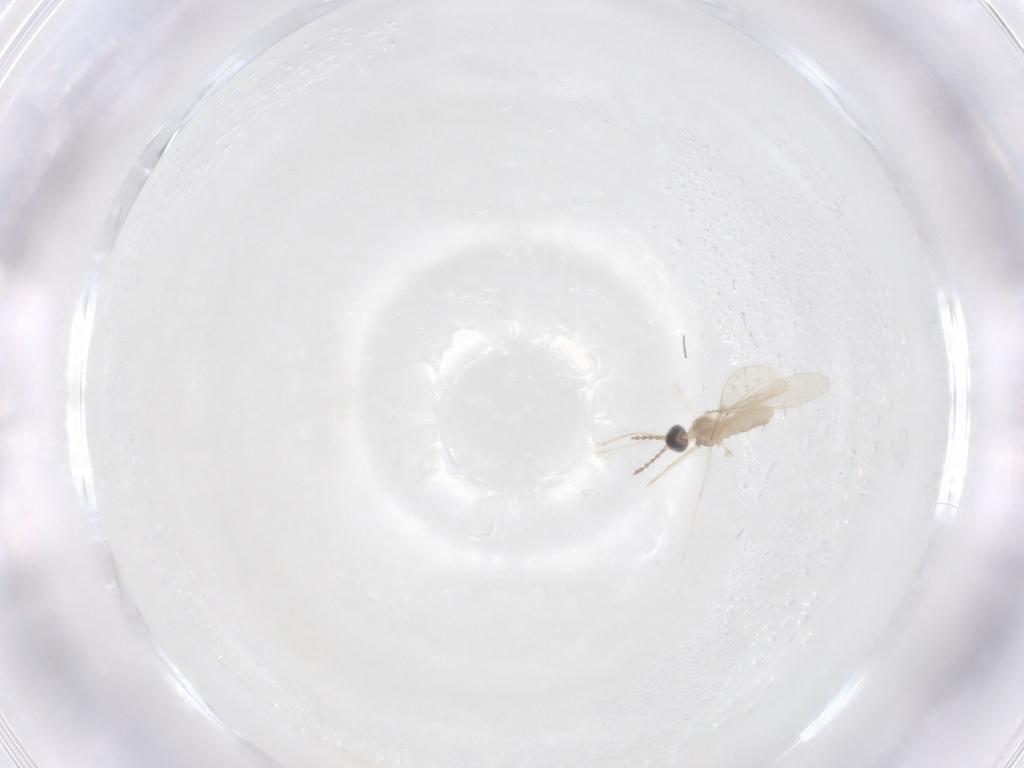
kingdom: Animalia
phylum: Arthropoda
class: Insecta
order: Diptera
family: Cecidomyiidae
